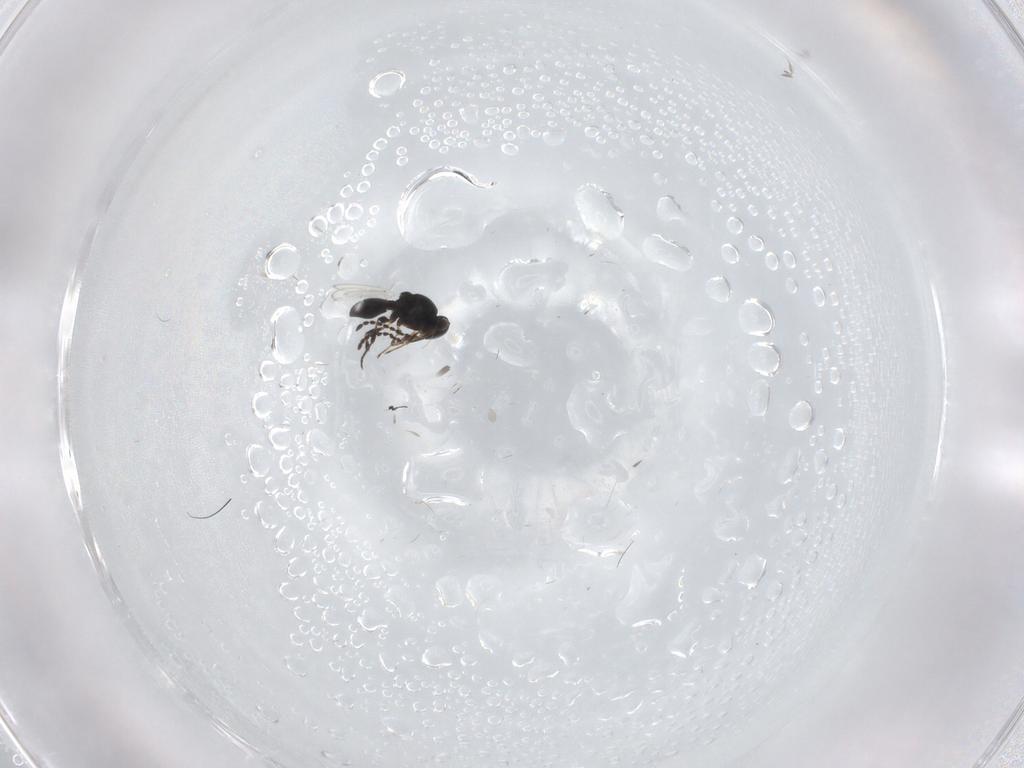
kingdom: Animalia
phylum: Arthropoda
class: Insecta
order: Hymenoptera
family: Platygastridae
